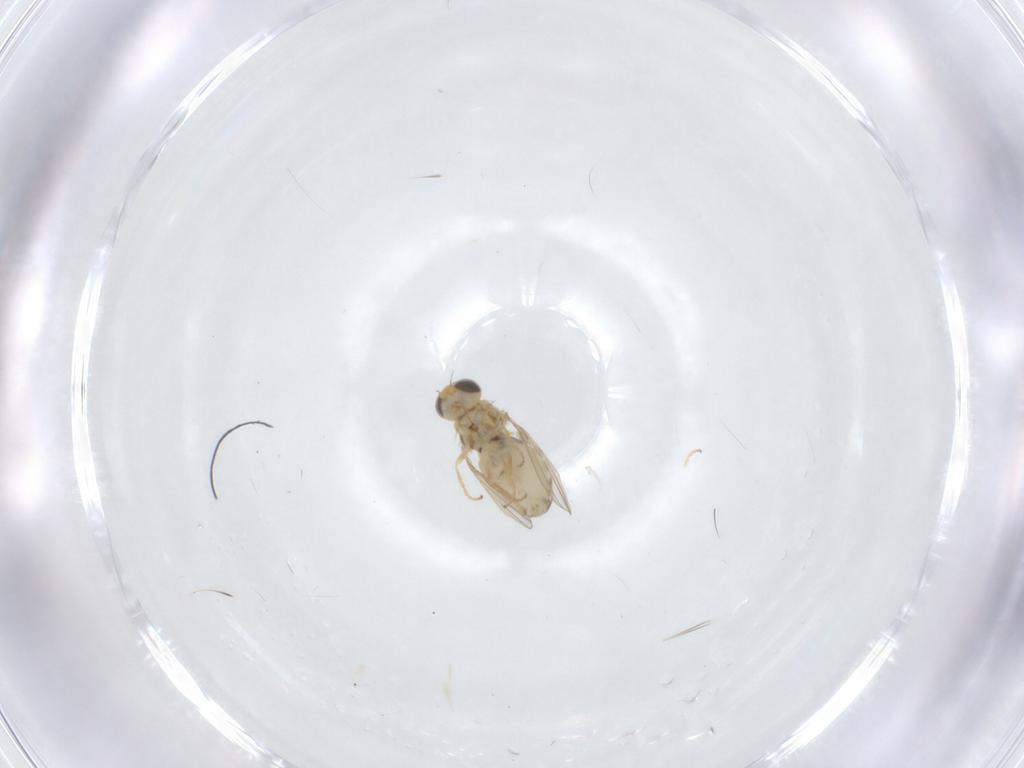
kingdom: Animalia
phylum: Arthropoda
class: Insecta
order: Diptera
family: Chyromyidae
